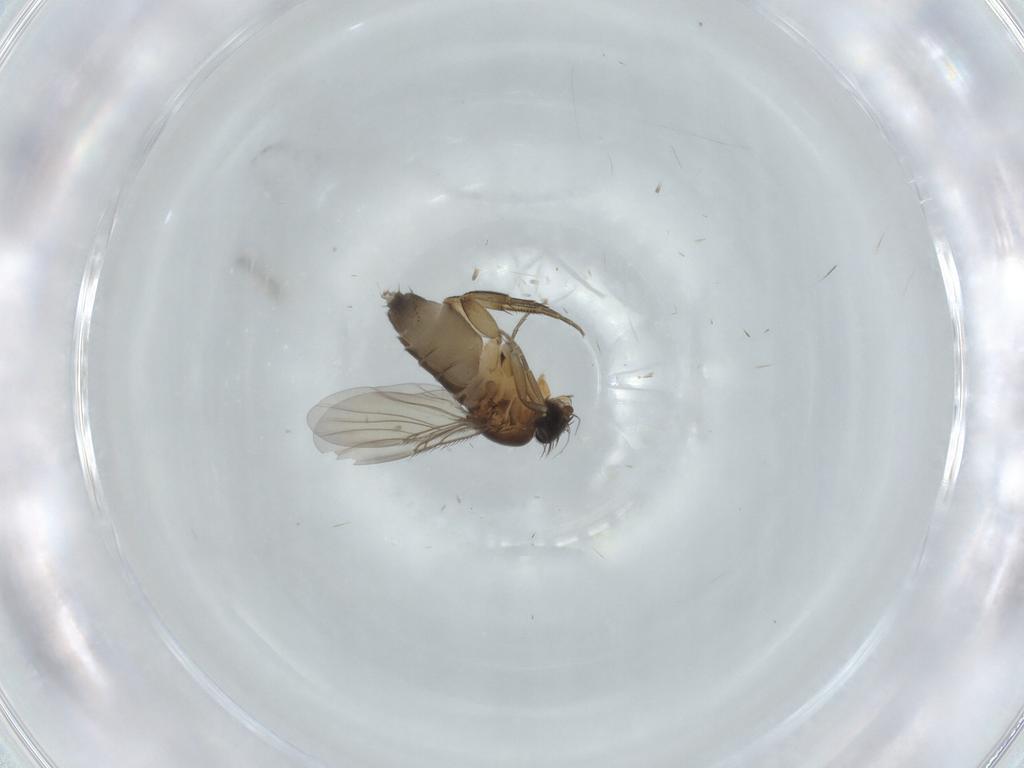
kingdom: Animalia
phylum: Arthropoda
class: Insecta
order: Diptera
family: Phoridae
